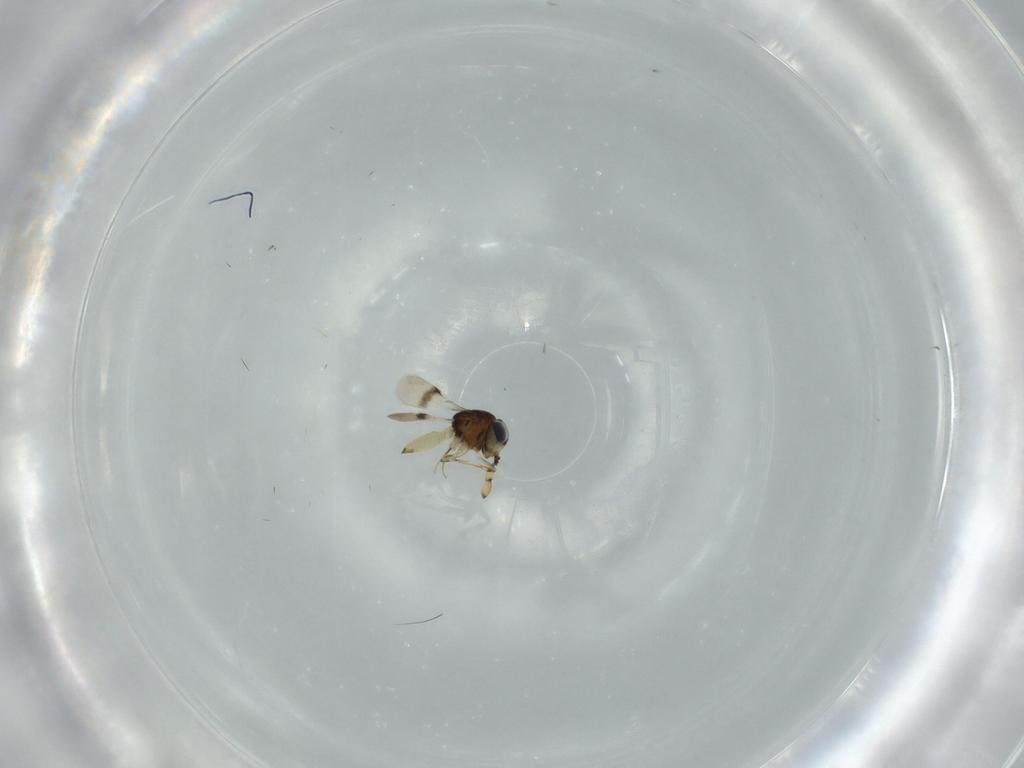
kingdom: Animalia
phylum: Arthropoda
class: Insecta
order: Hymenoptera
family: Scelionidae
